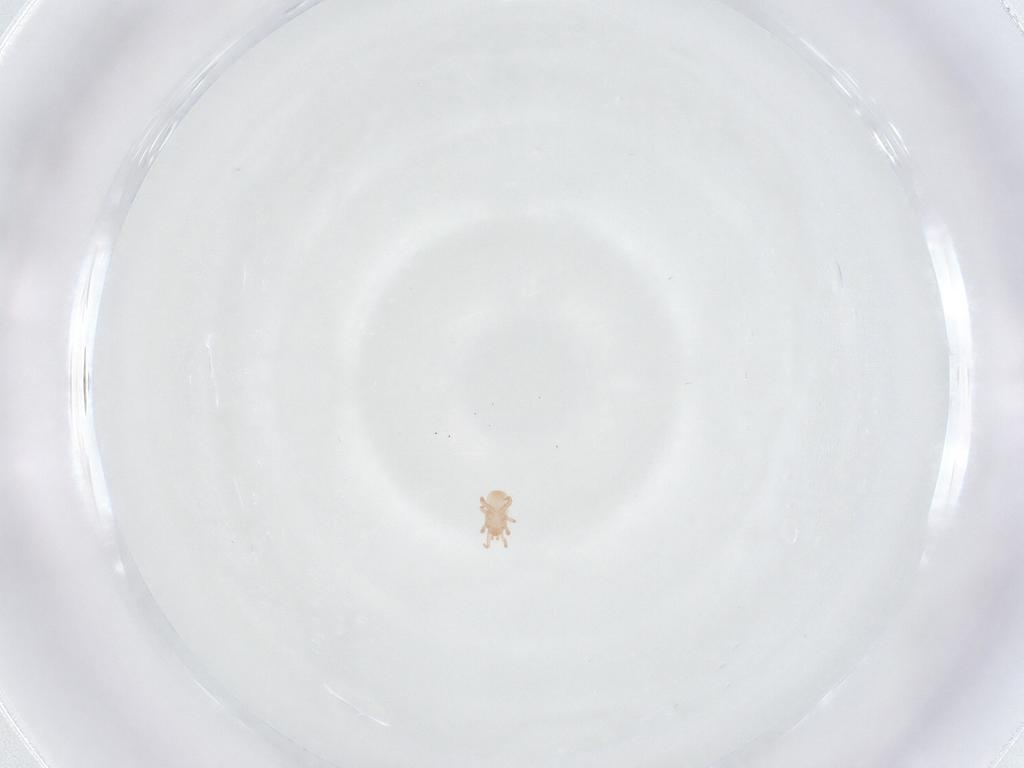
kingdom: Animalia
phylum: Arthropoda
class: Arachnida
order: Mesostigmata
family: Digamasellidae
